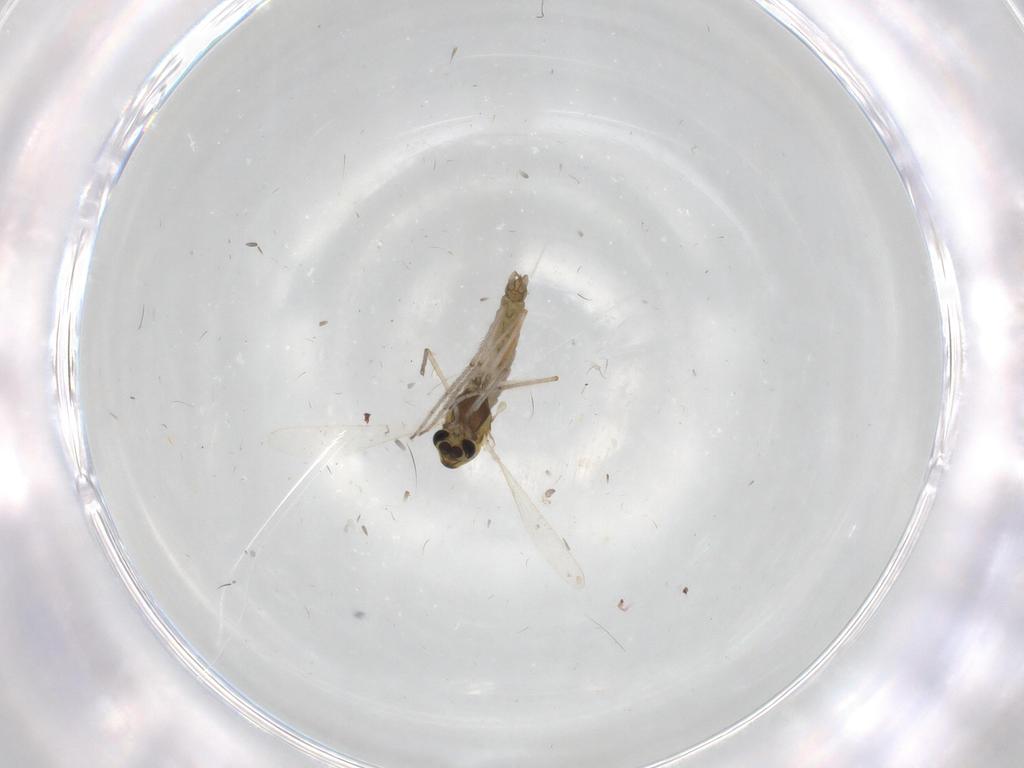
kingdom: Animalia
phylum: Arthropoda
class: Insecta
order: Diptera
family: Chironomidae
